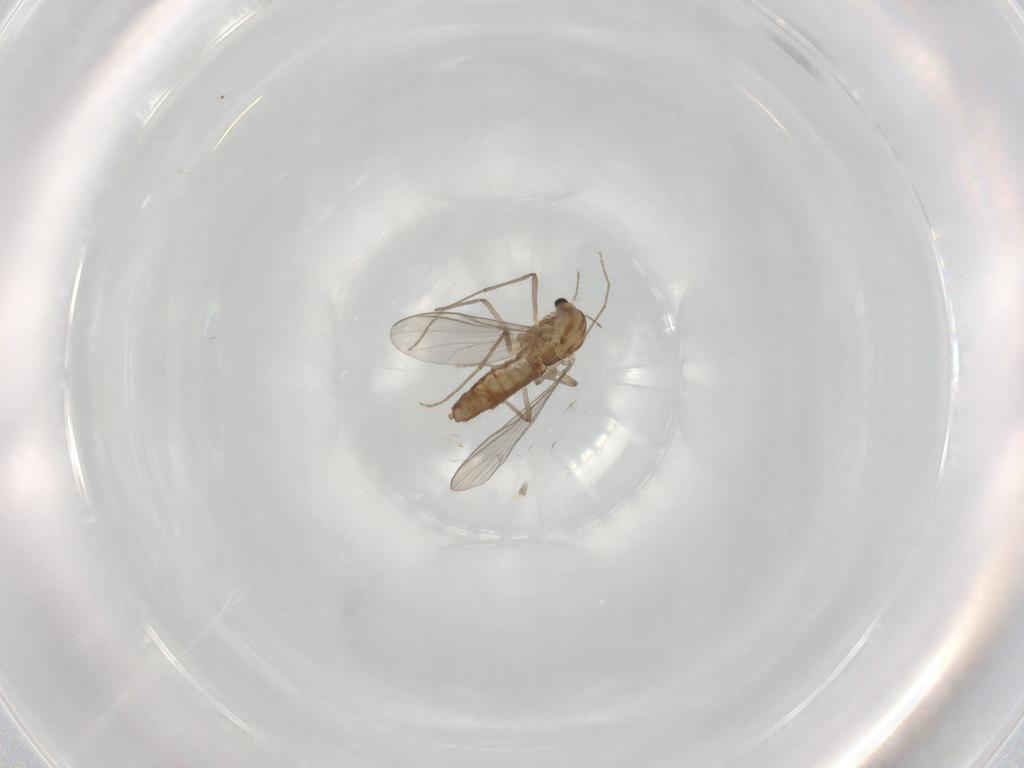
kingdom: Animalia
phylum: Arthropoda
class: Insecta
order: Diptera
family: Chironomidae
